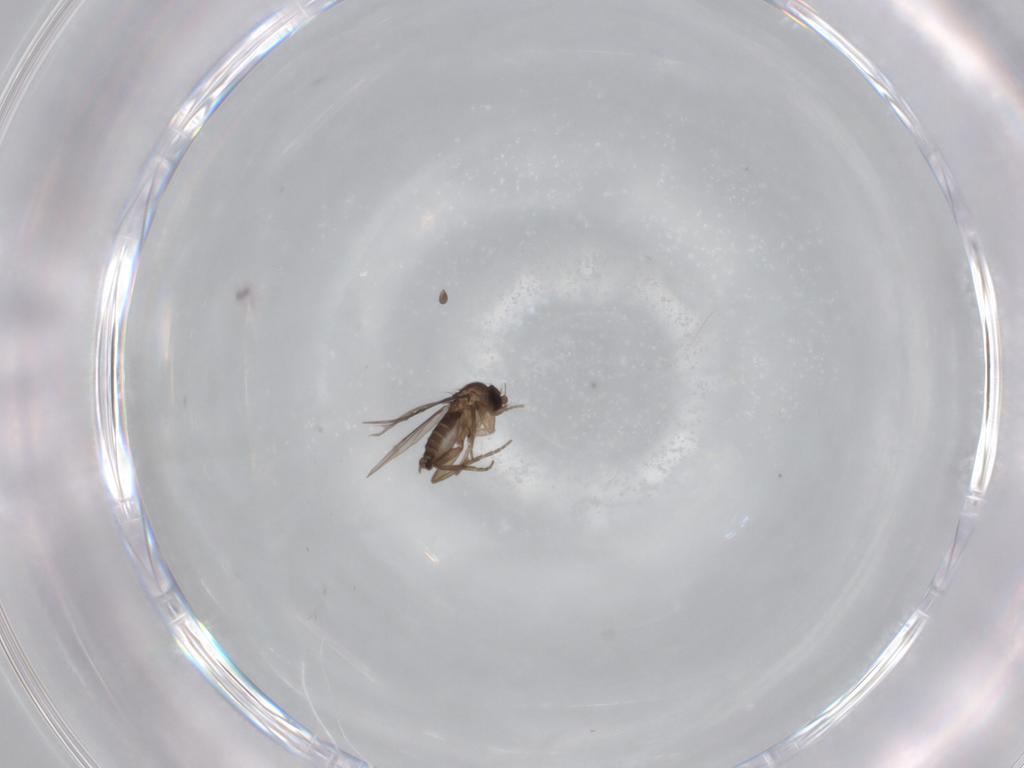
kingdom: Animalia
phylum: Arthropoda
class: Insecta
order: Diptera
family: Phoridae
